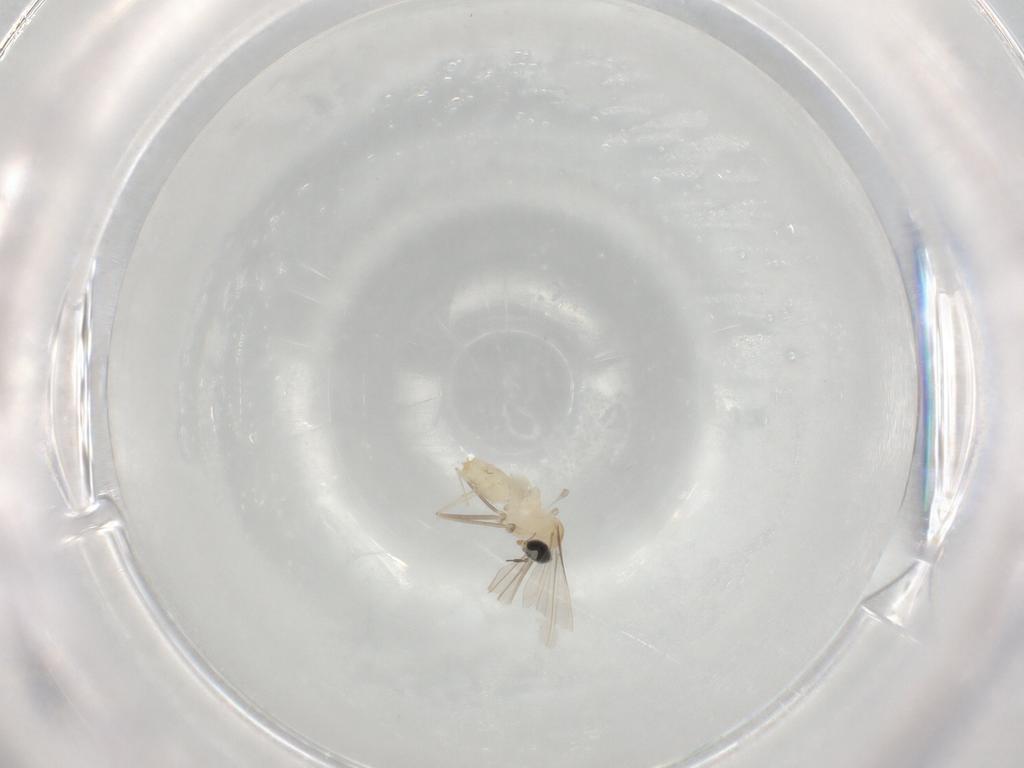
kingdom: Animalia
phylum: Arthropoda
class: Insecta
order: Diptera
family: Cecidomyiidae
